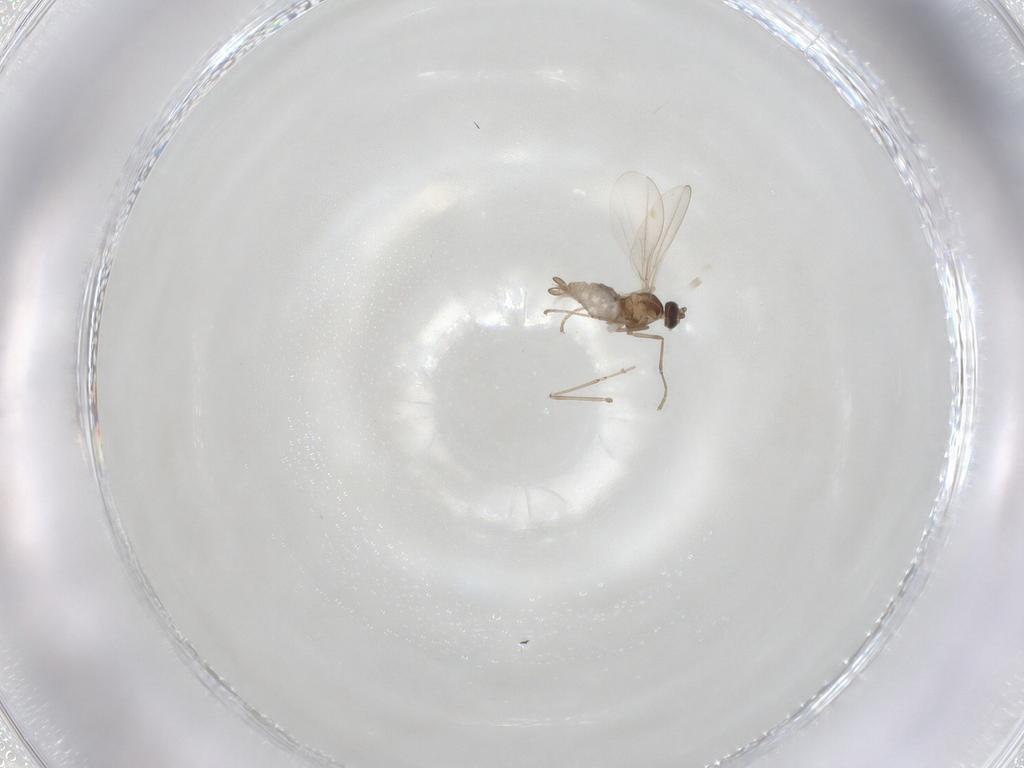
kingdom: Animalia
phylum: Arthropoda
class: Insecta
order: Diptera
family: Cecidomyiidae
